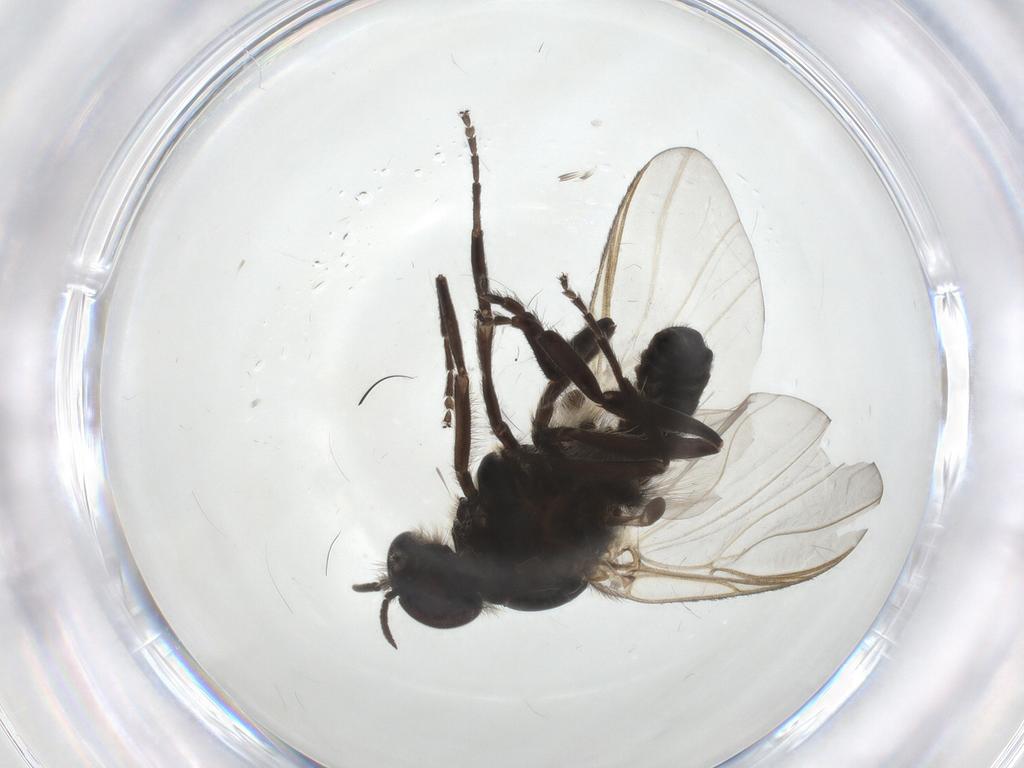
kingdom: Animalia
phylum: Arthropoda
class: Insecta
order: Diptera
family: Simuliidae
